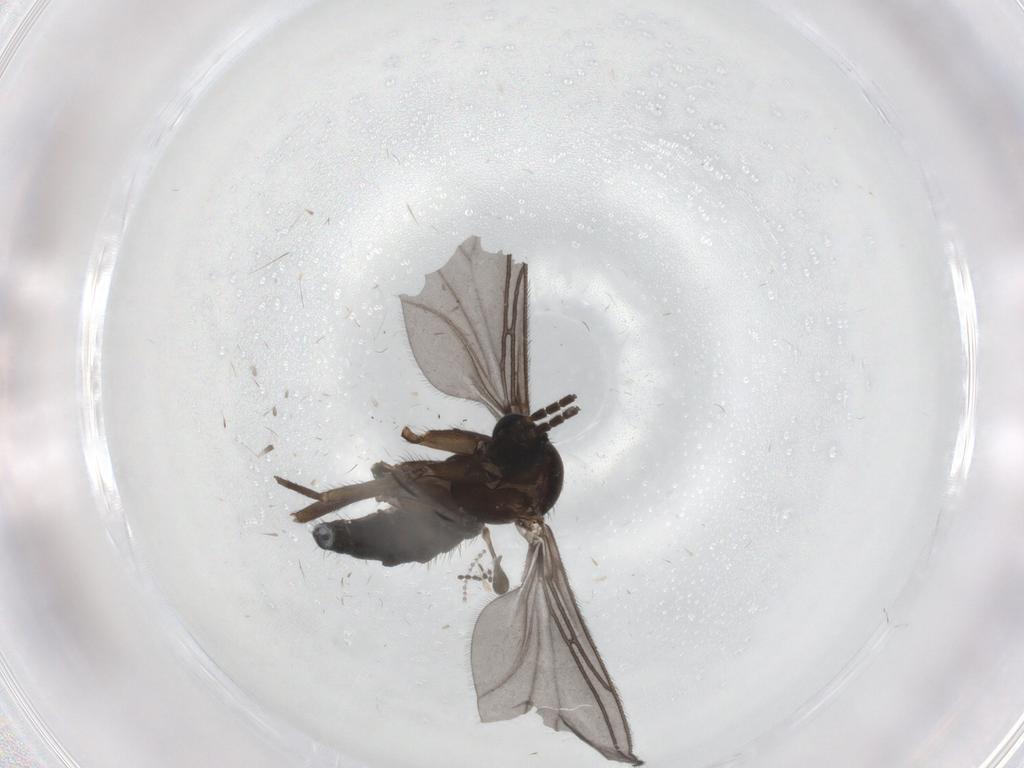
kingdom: Animalia
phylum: Arthropoda
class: Insecta
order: Diptera
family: Sciaridae
